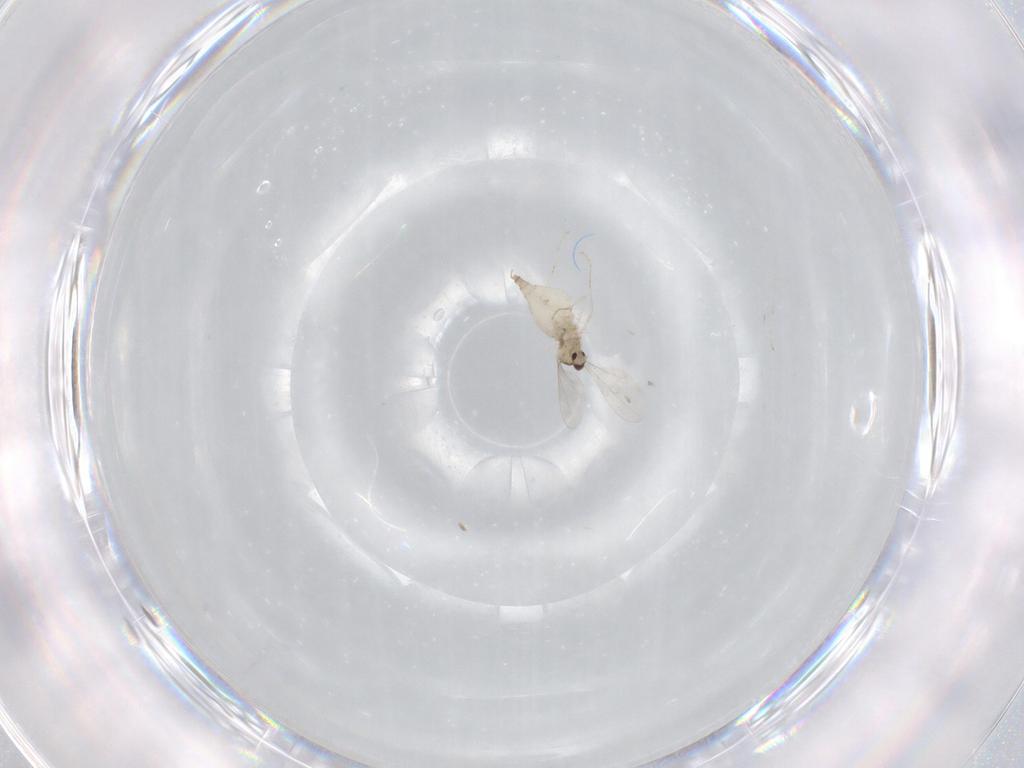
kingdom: Animalia
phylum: Arthropoda
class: Insecta
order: Diptera
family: Cecidomyiidae
